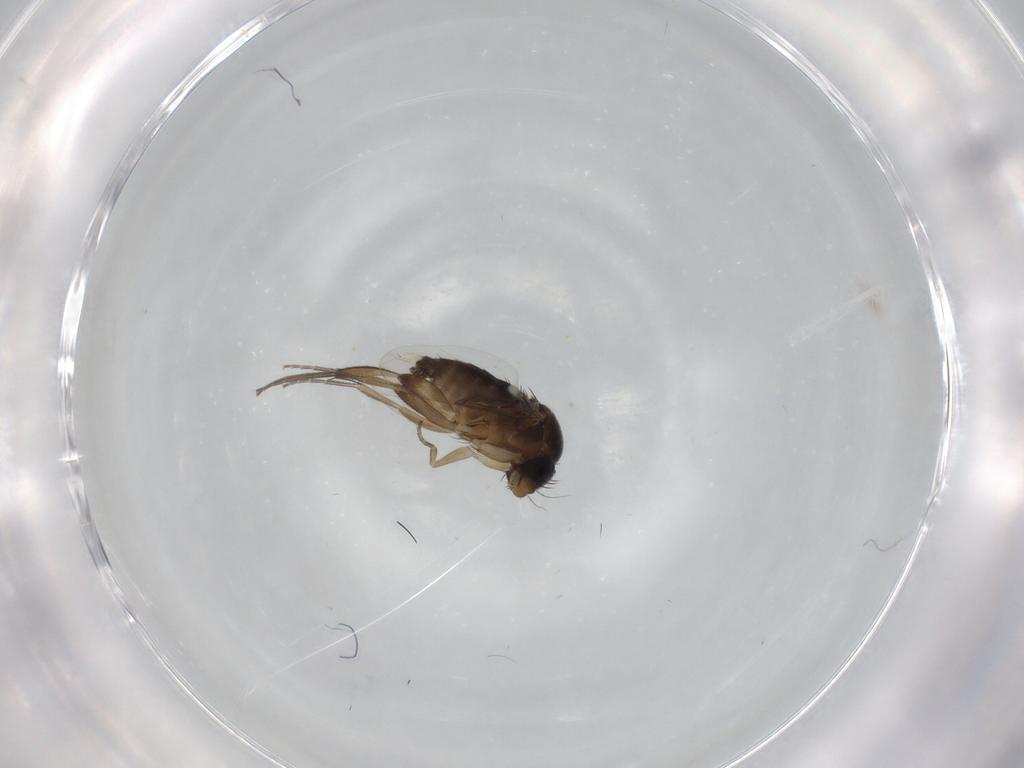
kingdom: Animalia
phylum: Arthropoda
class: Insecta
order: Diptera
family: Phoridae
